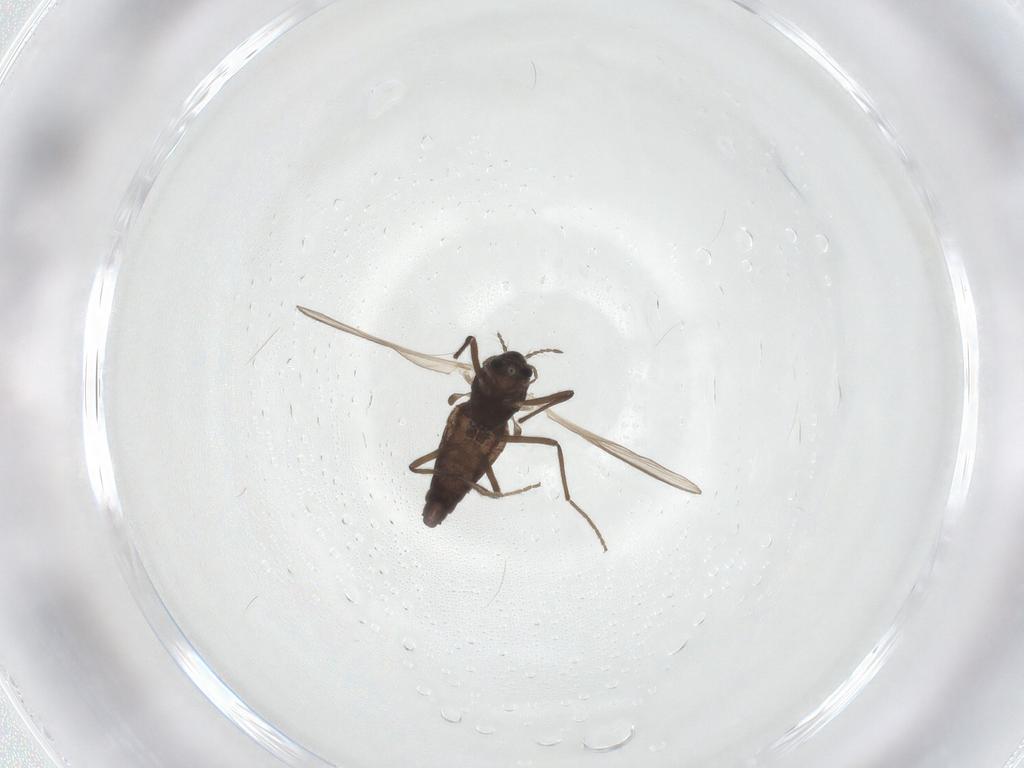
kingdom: Animalia
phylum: Arthropoda
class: Insecta
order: Diptera
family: Chironomidae
